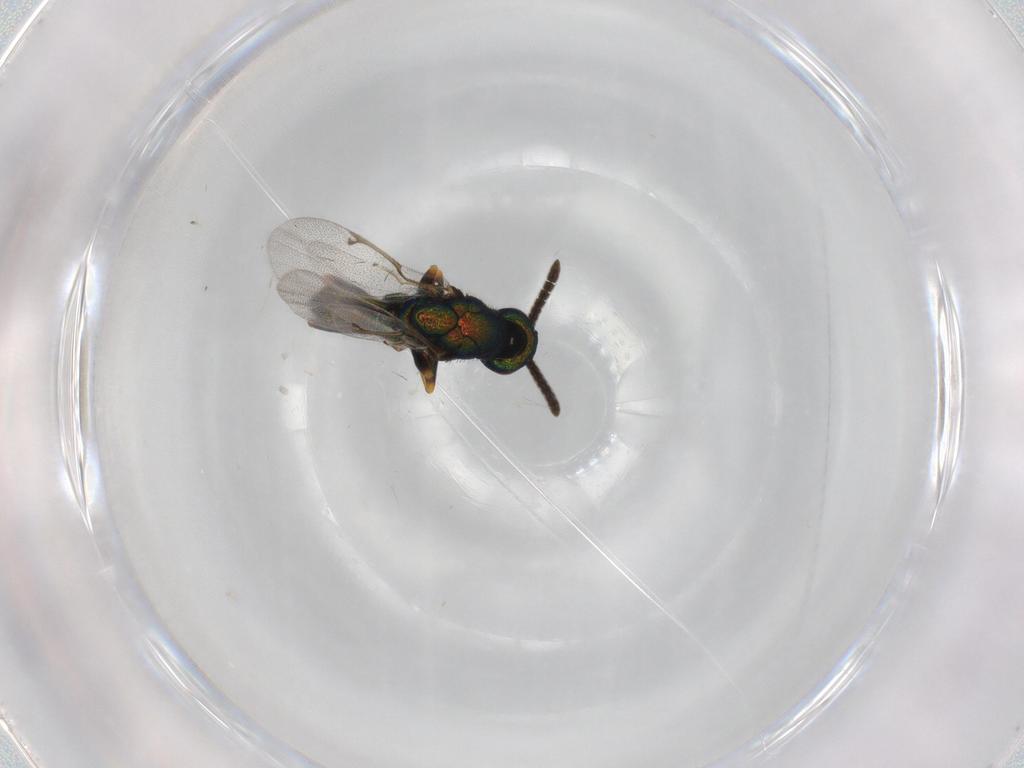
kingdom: Animalia
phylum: Arthropoda
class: Insecta
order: Hymenoptera
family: Torymidae
